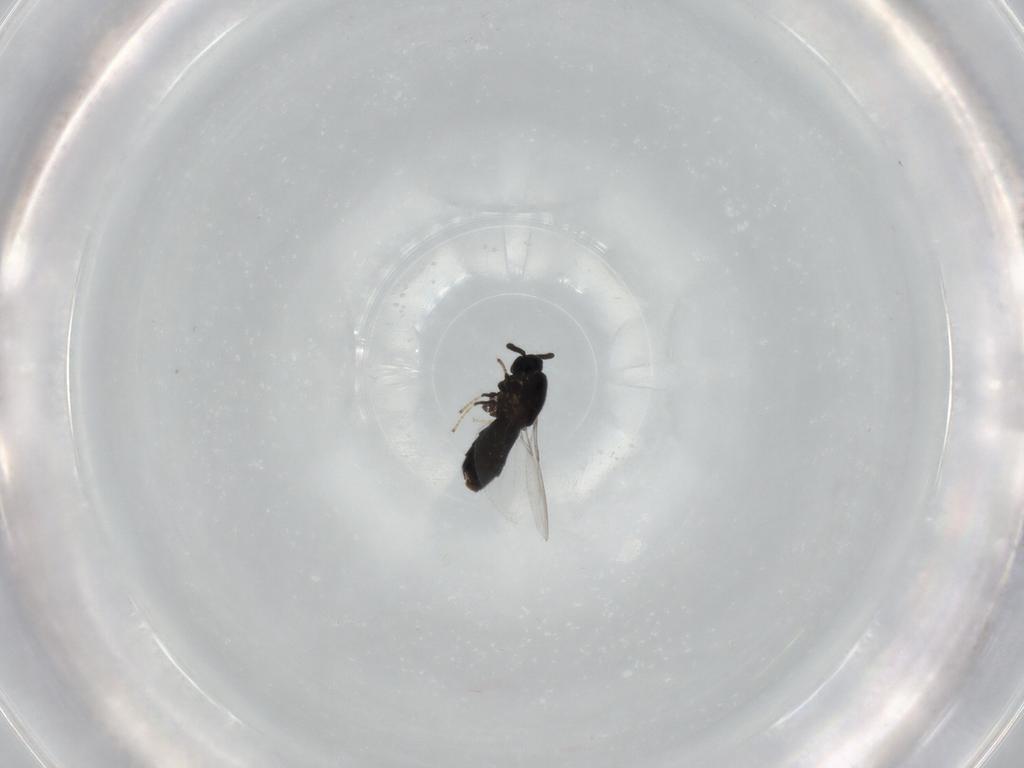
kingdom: Animalia
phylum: Arthropoda
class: Insecta
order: Diptera
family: Scatopsidae
